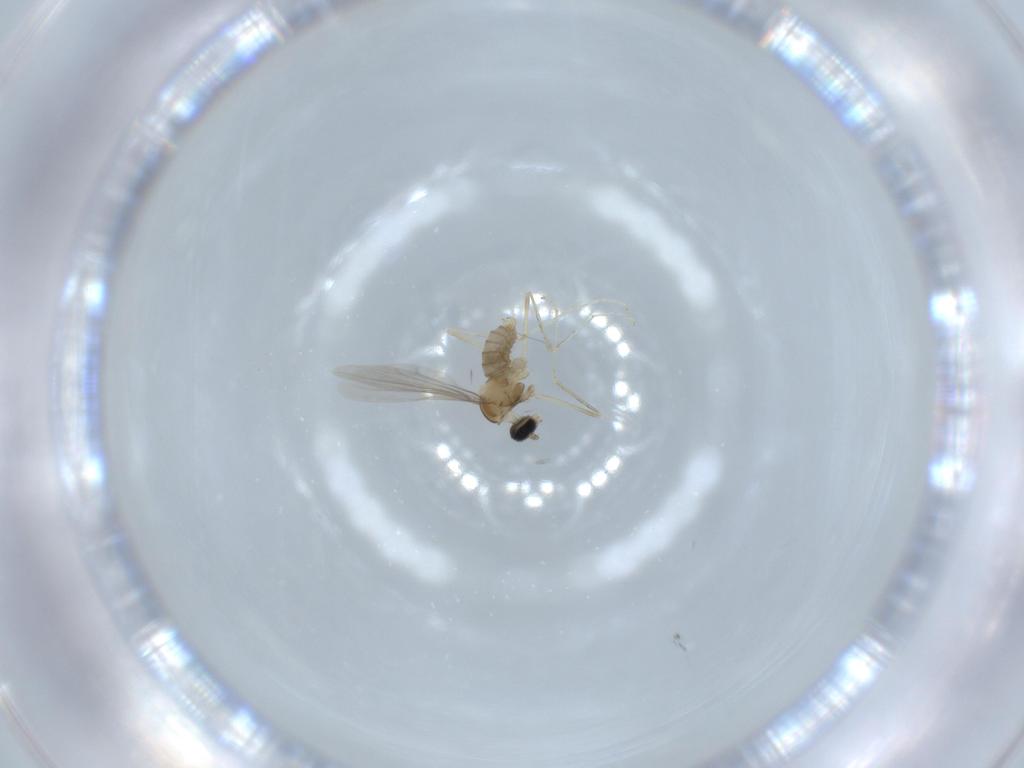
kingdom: Animalia
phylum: Arthropoda
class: Insecta
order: Diptera
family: Cecidomyiidae
